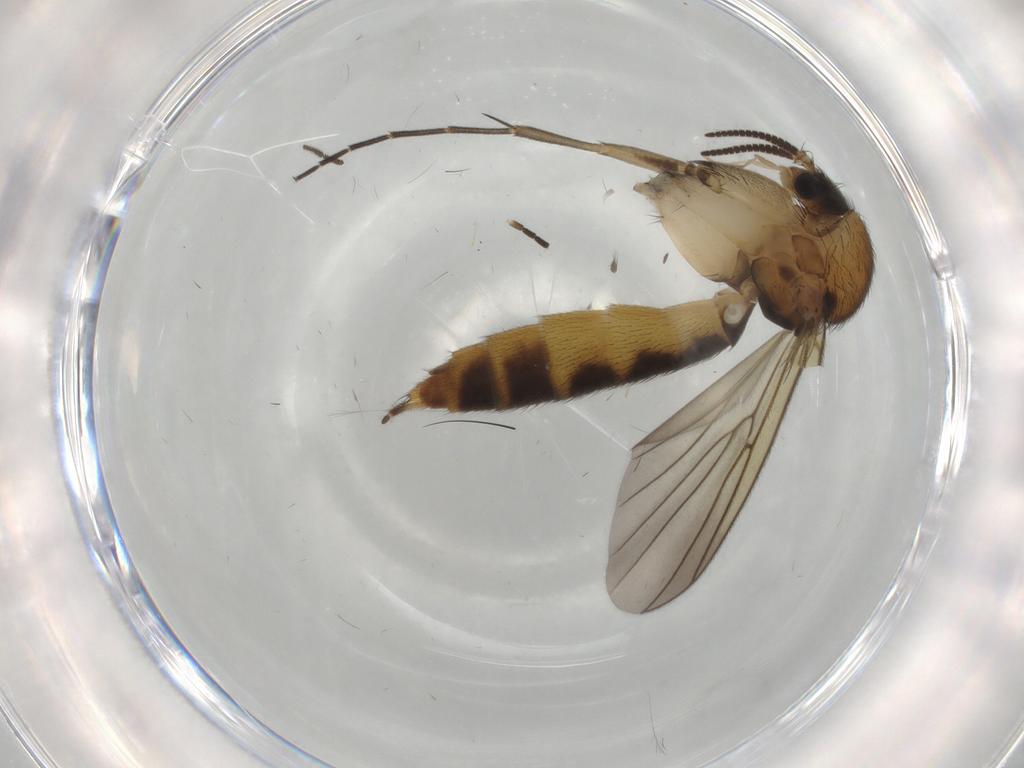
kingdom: Animalia
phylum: Arthropoda
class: Insecta
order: Diptera
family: Mycetophilidae
